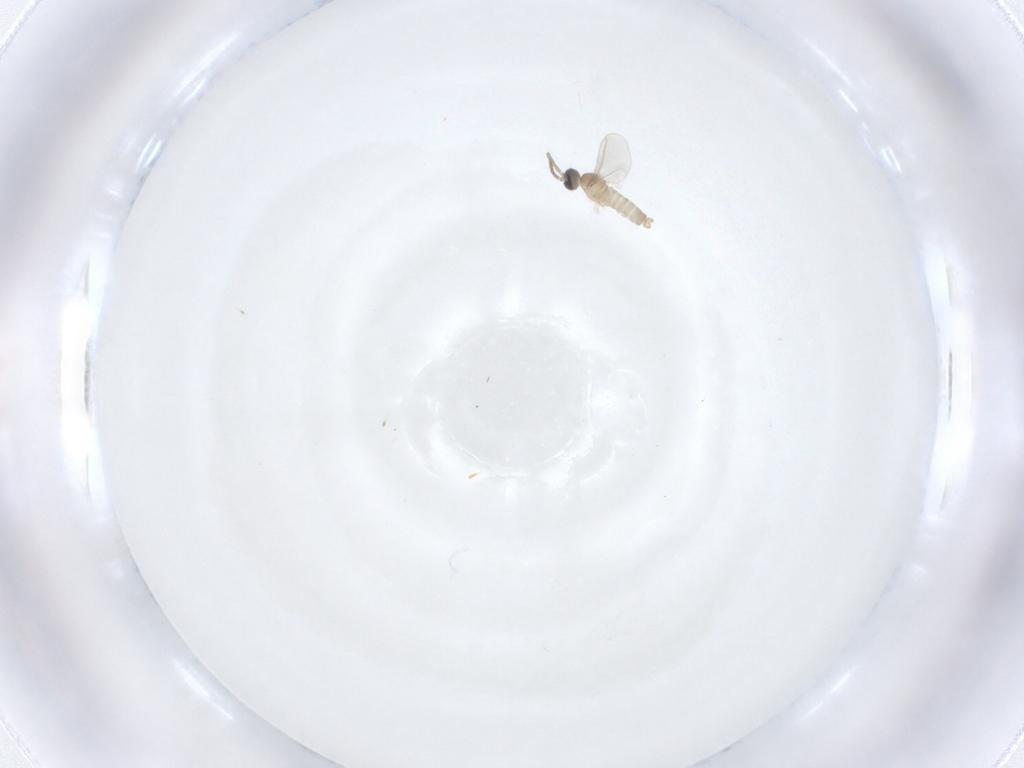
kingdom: Animalia
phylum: Arthropoda
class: Insecta
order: Diptera
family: Cecidomyiidae
